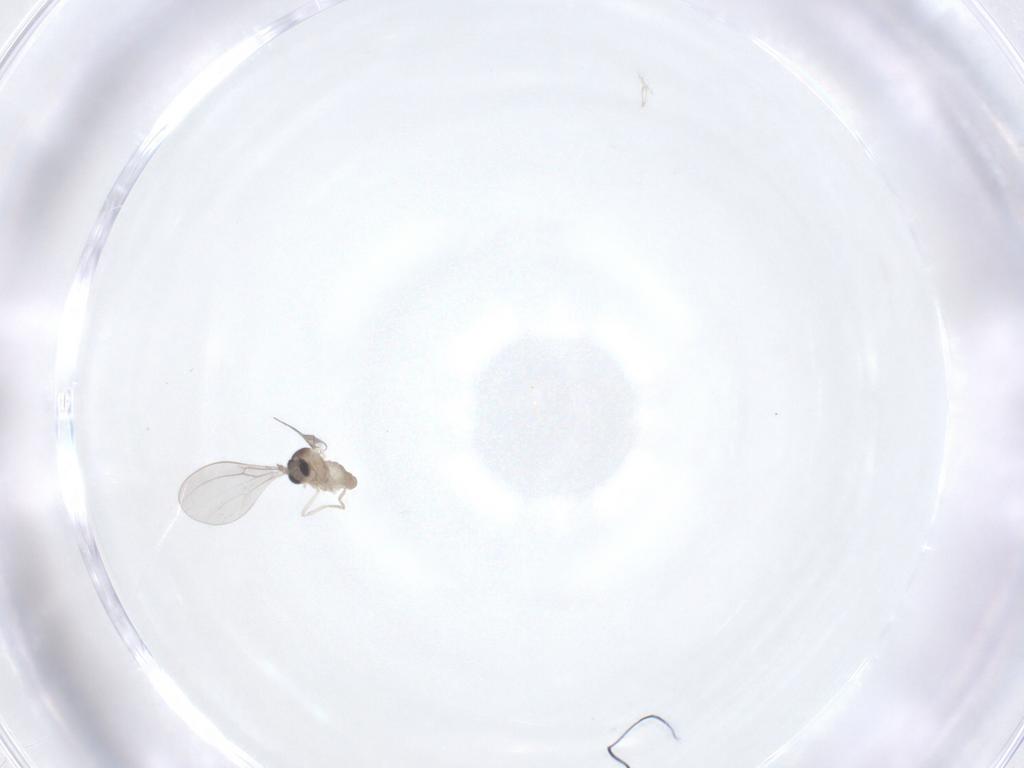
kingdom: Animalia
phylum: Arthropoda
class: Insecta
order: Diptera
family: Cecidomyiidae
